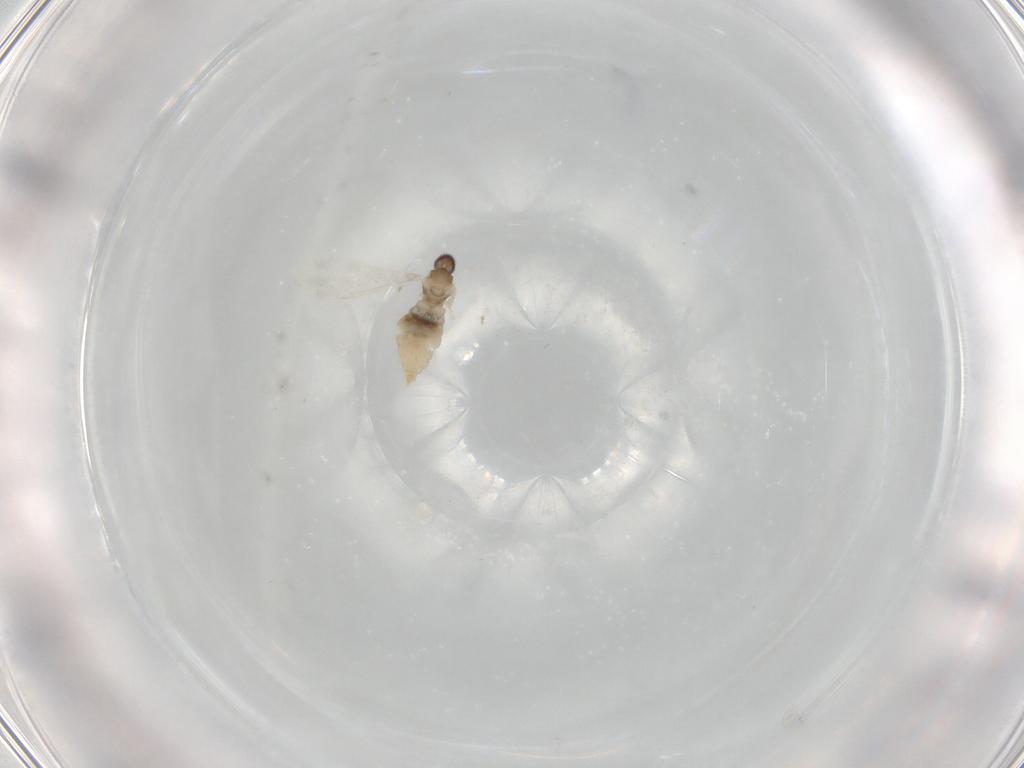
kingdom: Animalia
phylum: Arthropoda
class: Insecta
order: Diptera
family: Cecidomyiidae
